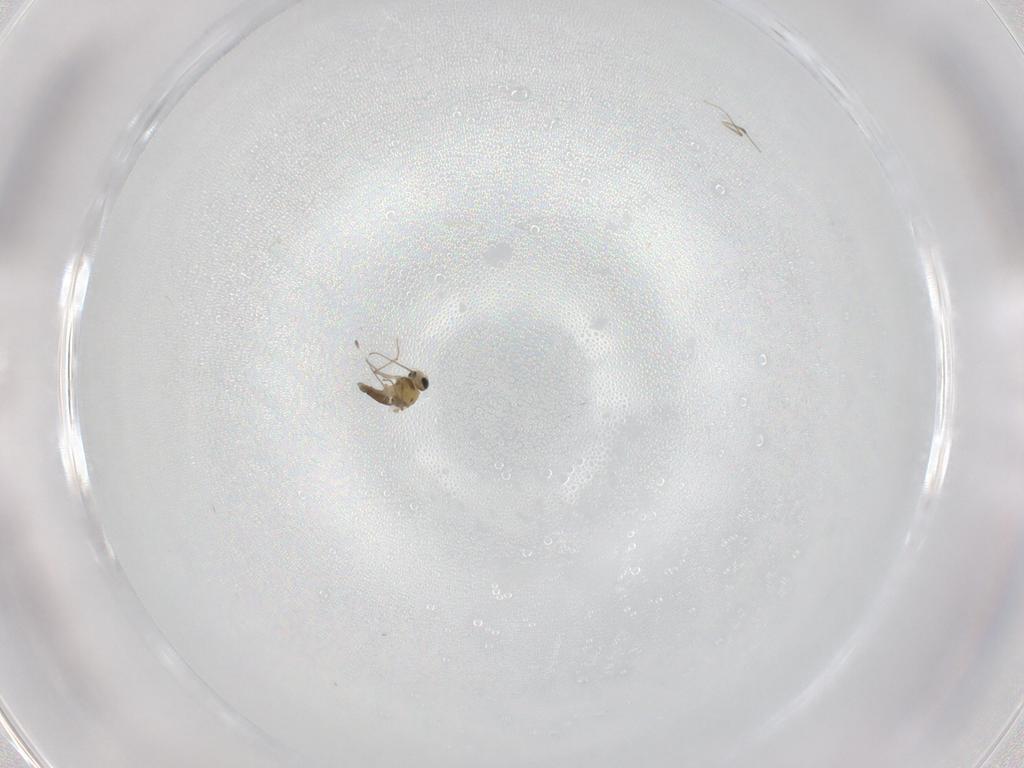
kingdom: Animalia
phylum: Arthropoda
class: Insecta
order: Diptera
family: Chironomidae
